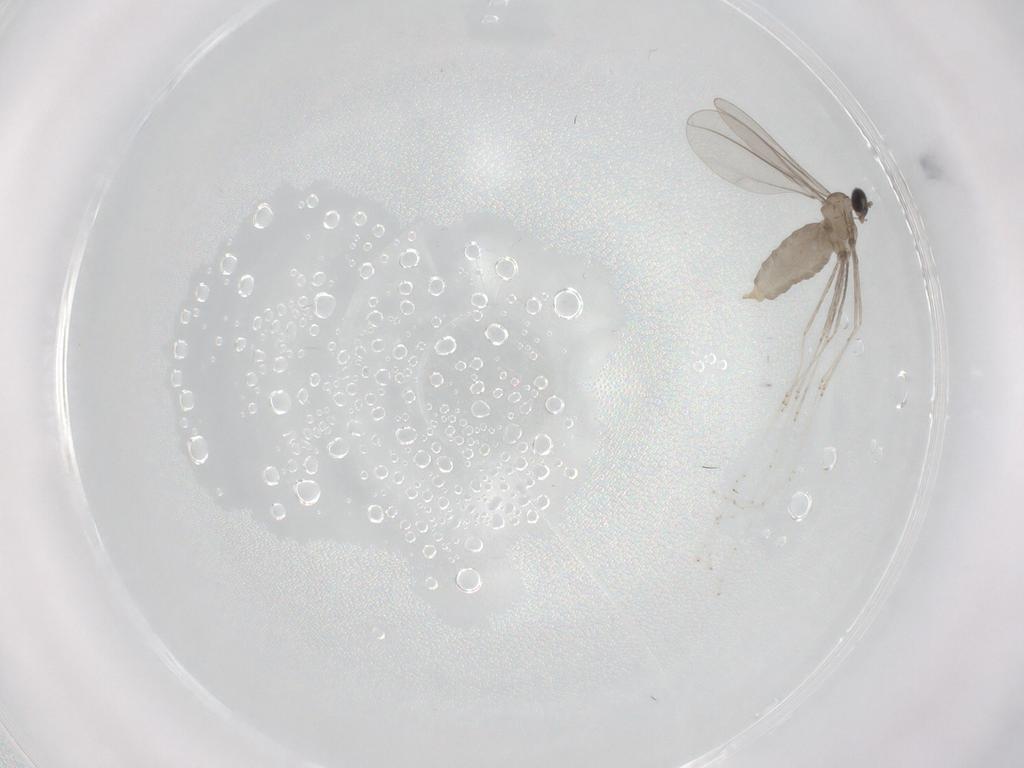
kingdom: Animalia
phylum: Arthropoda
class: Insecta
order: Diptera
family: Cecidomyiidae
